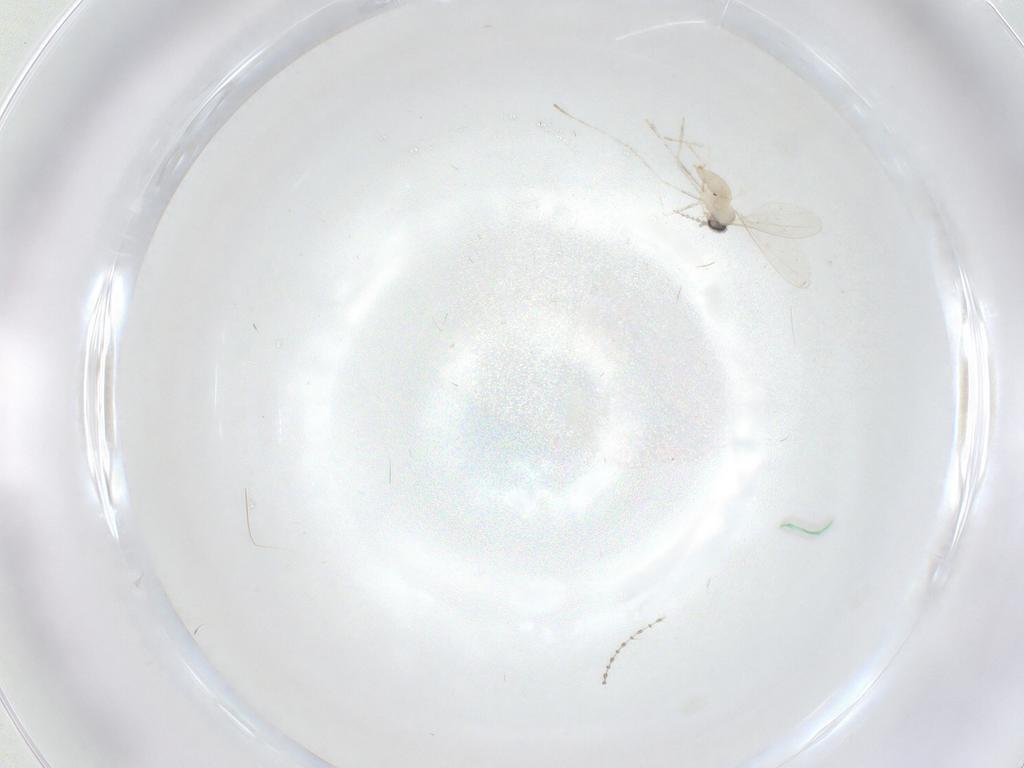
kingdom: Animalia
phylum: Arthropoda
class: Insecta
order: Diptera
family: Cecidomyiidae
